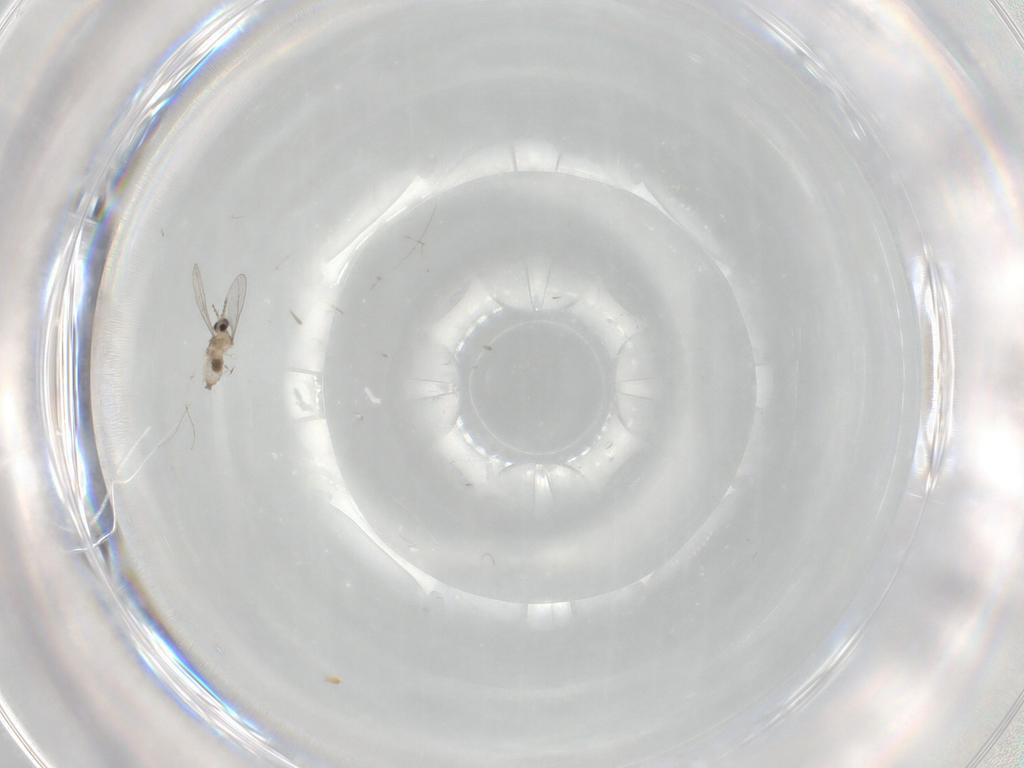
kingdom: Animalia
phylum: Arthropoda
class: Insecta
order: Diptera
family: Cecidomyiidae
